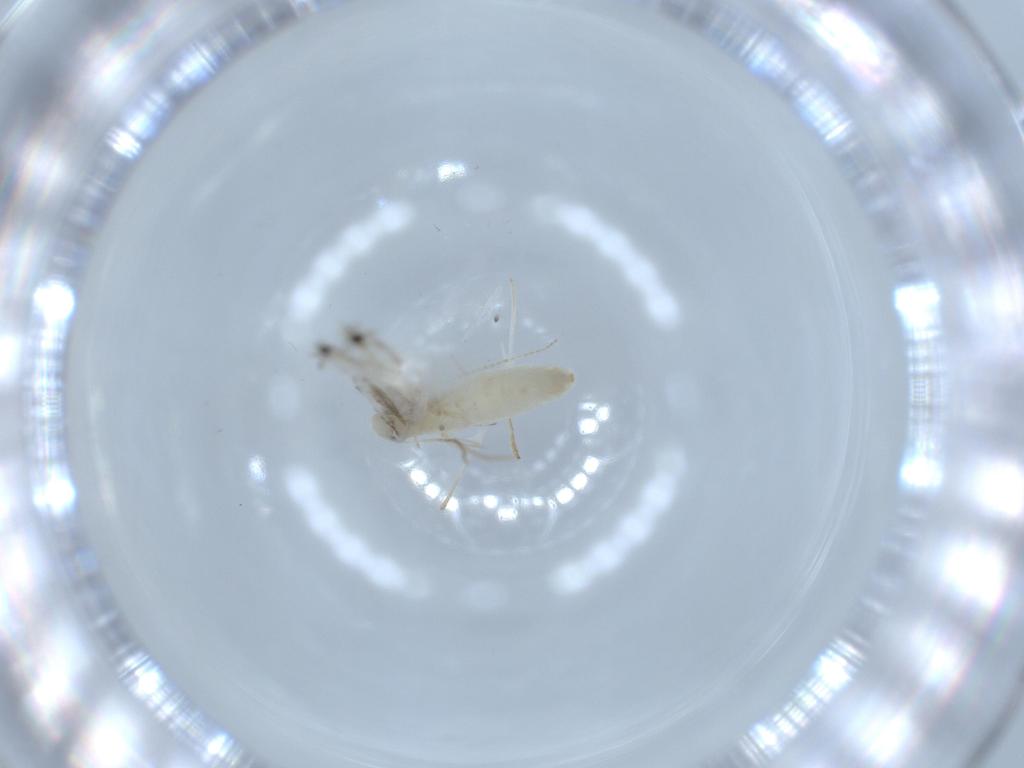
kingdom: Animalia
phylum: Arthropoda
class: Insecta
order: Lepidoptera
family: Gracillariidae
